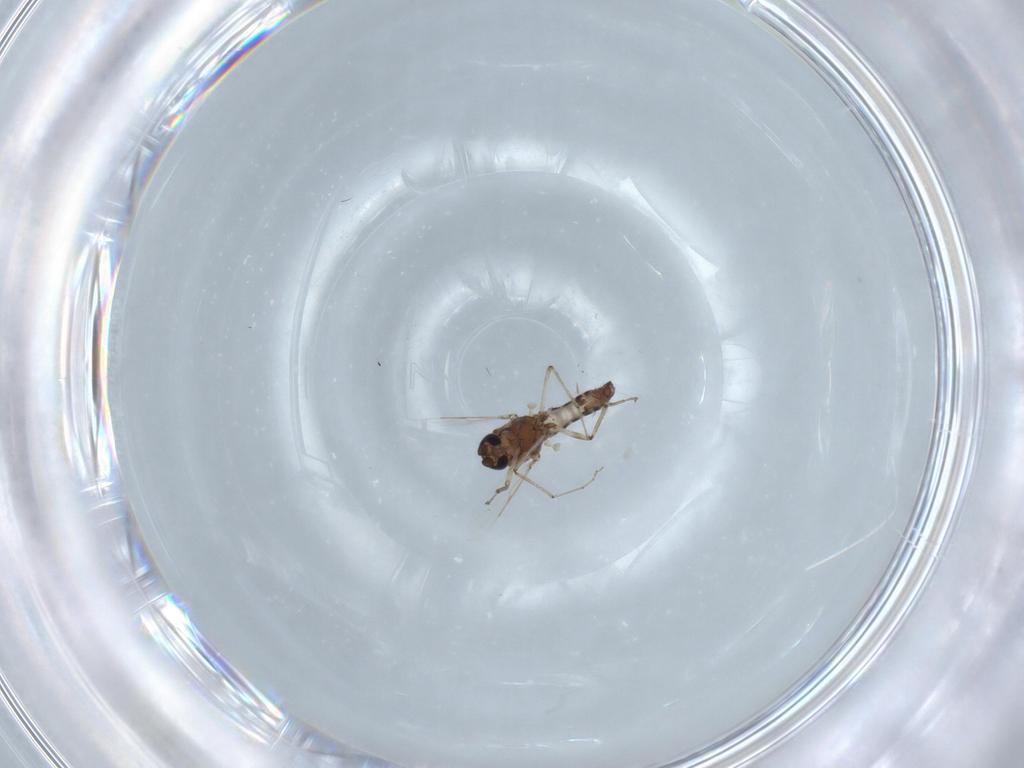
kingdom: Animalia
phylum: Arthropoda
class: Insecta
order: Diptera
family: Ceratopogonidae
